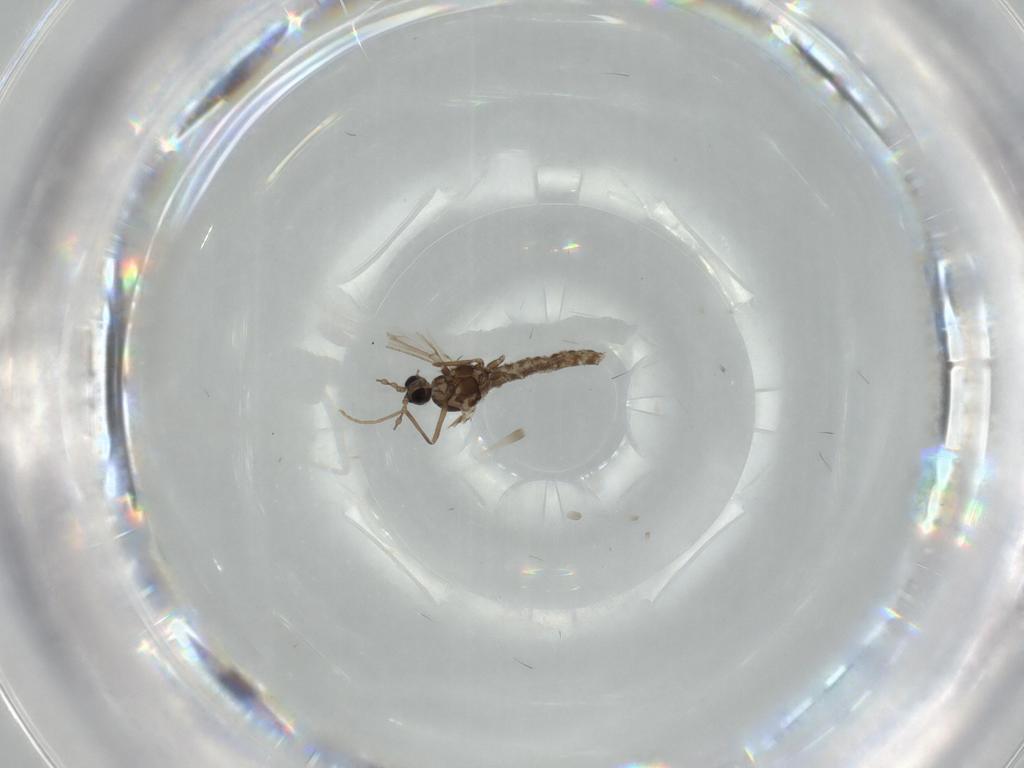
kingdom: Animalia
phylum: Arthropoda
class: Insecta
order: Diptera
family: Cecidomyiidae
